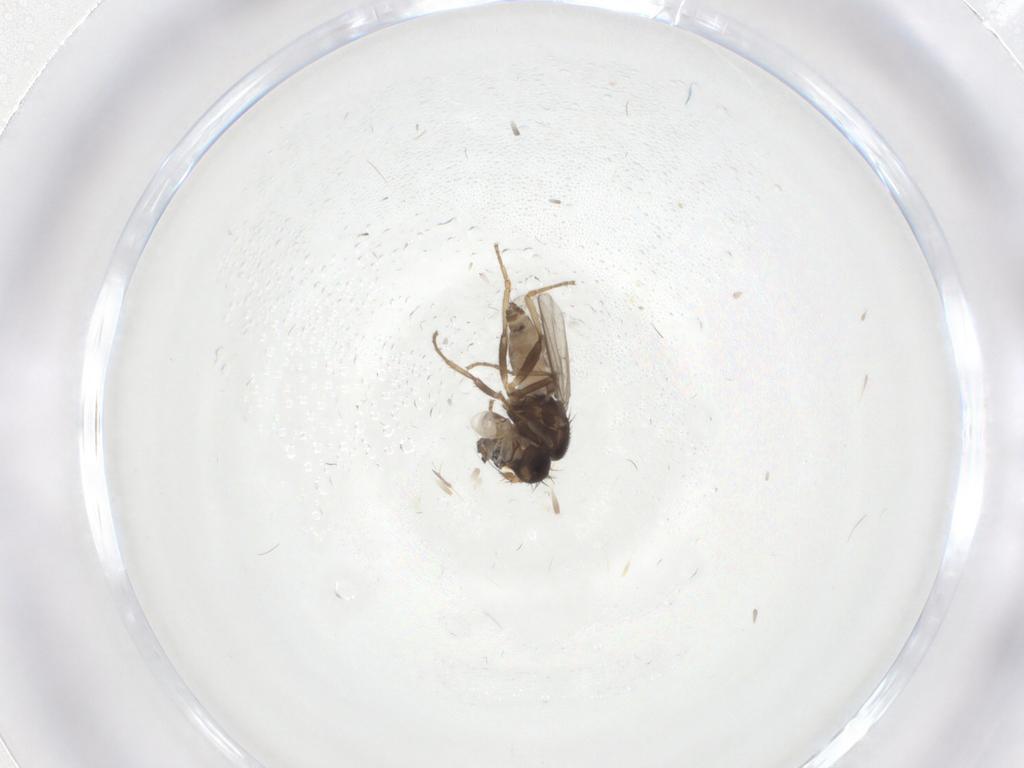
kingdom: Animalia
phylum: Arthropoda
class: Insecta
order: Diptera
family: Sphaeroceridae
